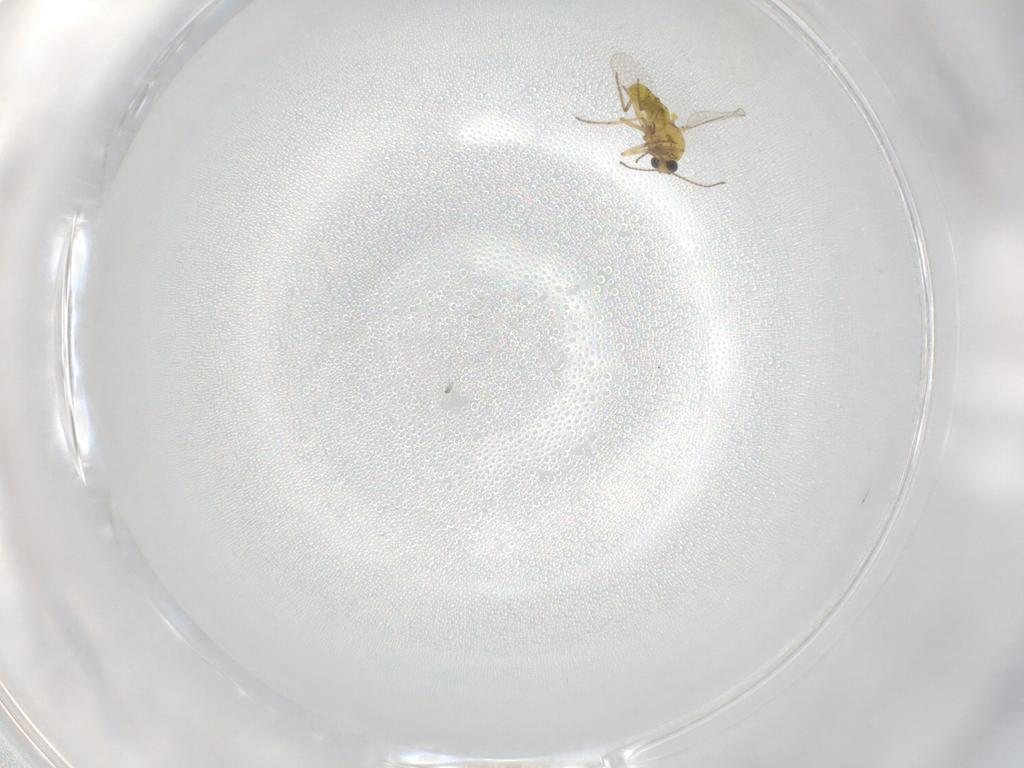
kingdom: Animalia
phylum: Arthropoda
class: Insecta
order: Diptera
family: Ceratopogonidae
